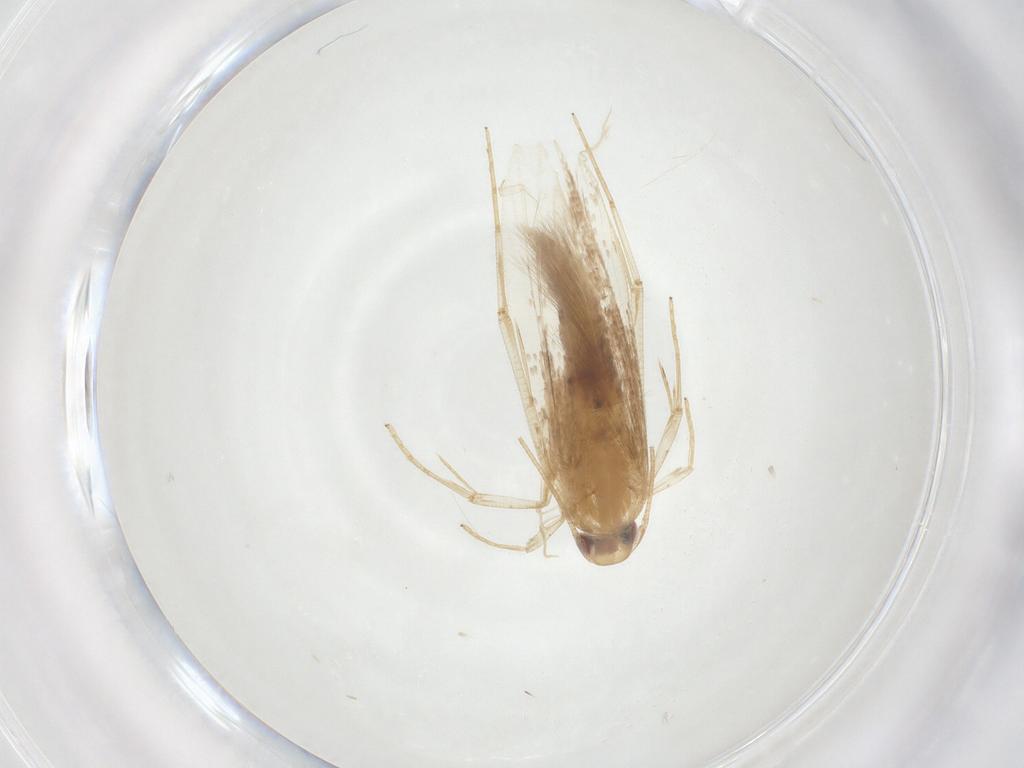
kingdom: Animalia
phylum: Arthropoda
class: Insecta
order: Lepidoptera
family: Erebidae
